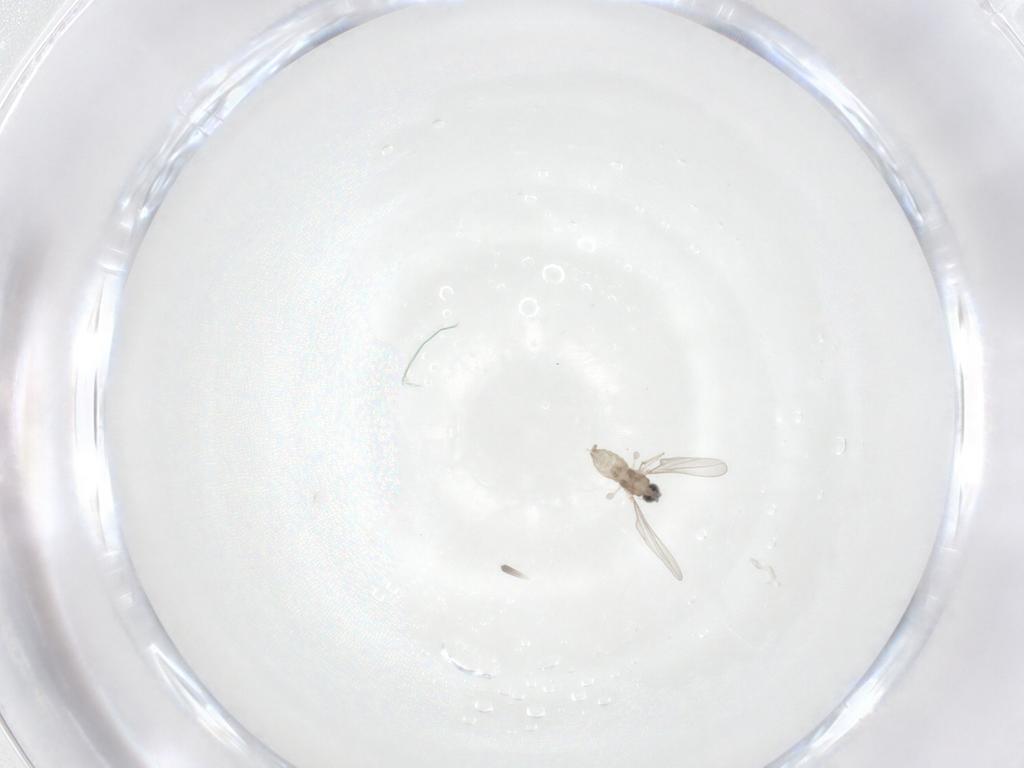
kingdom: Animalia
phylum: Arthropoda
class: Insecta
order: Diptera
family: Cecidomyiidae
